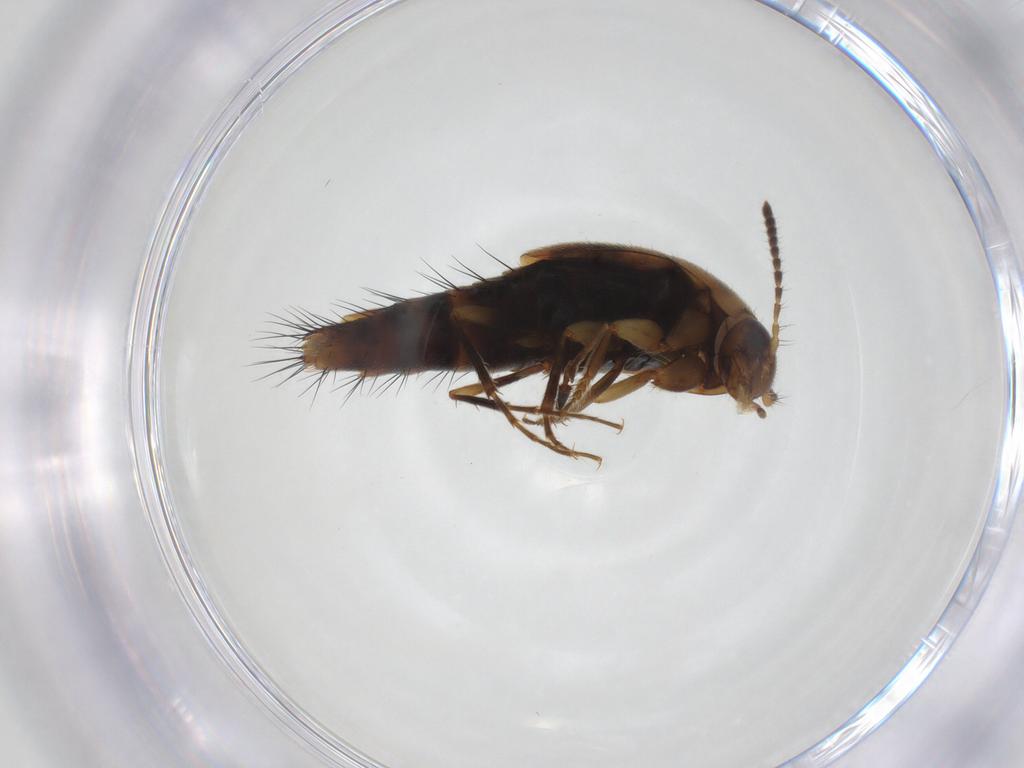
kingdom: Animalia
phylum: Arthropoda
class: Insecta
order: Coleoptera
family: Staphylinidae
